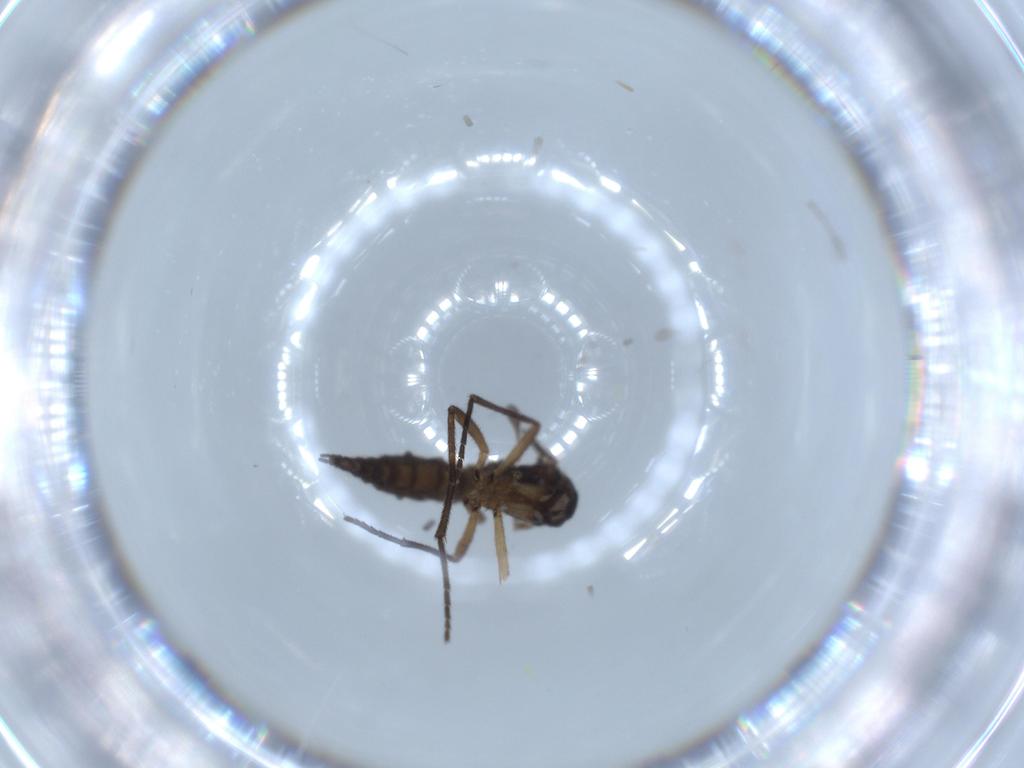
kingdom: Animalia
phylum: Arthropoda
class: Insecta
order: Diptera
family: Sciaridae
